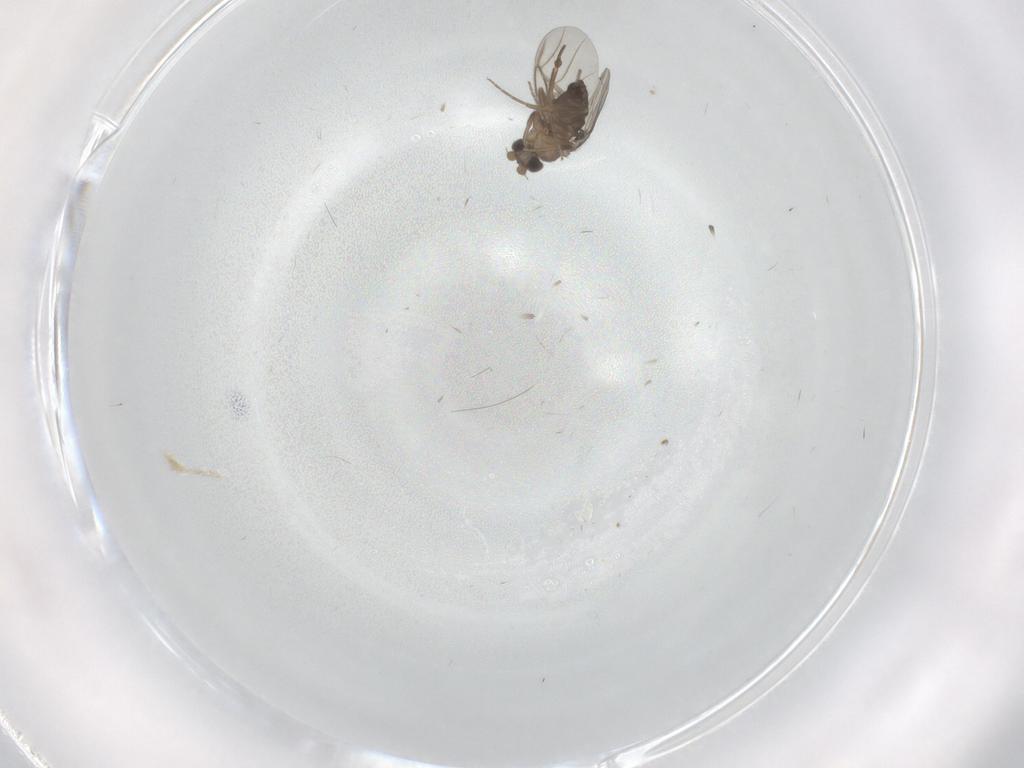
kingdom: Animalia
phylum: Arthropoda
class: Insecta
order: Diptera
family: Chironomidae
